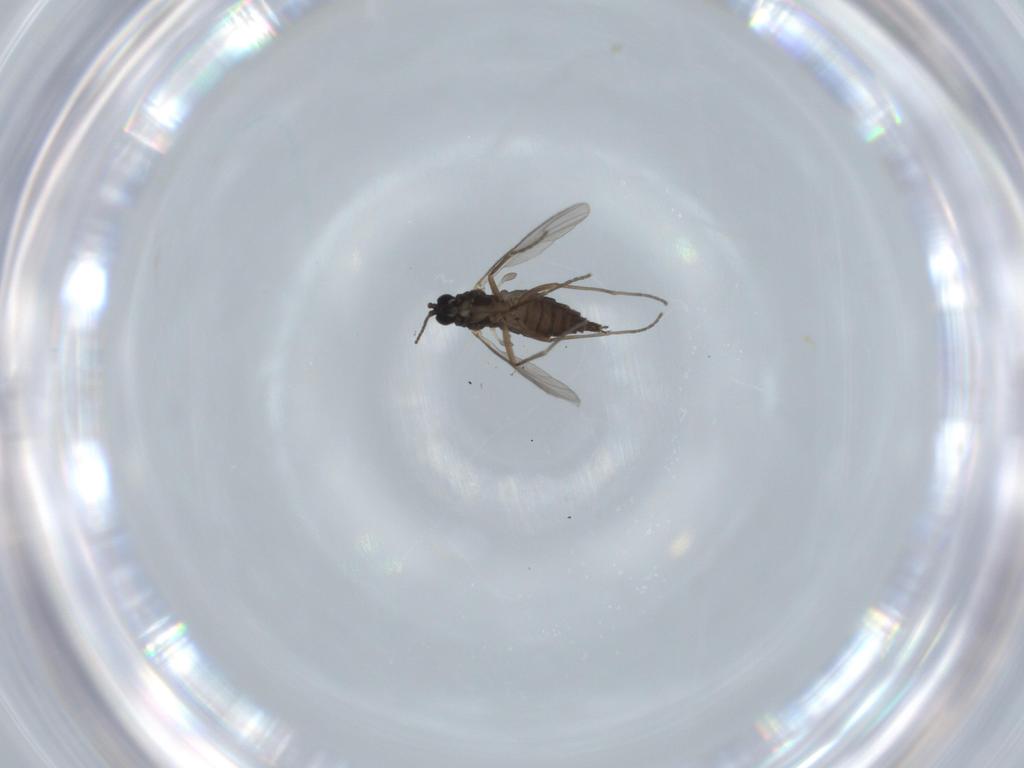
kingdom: Animalia
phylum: Arthropoda
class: Insecta
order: Diptera
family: Sciaridae
